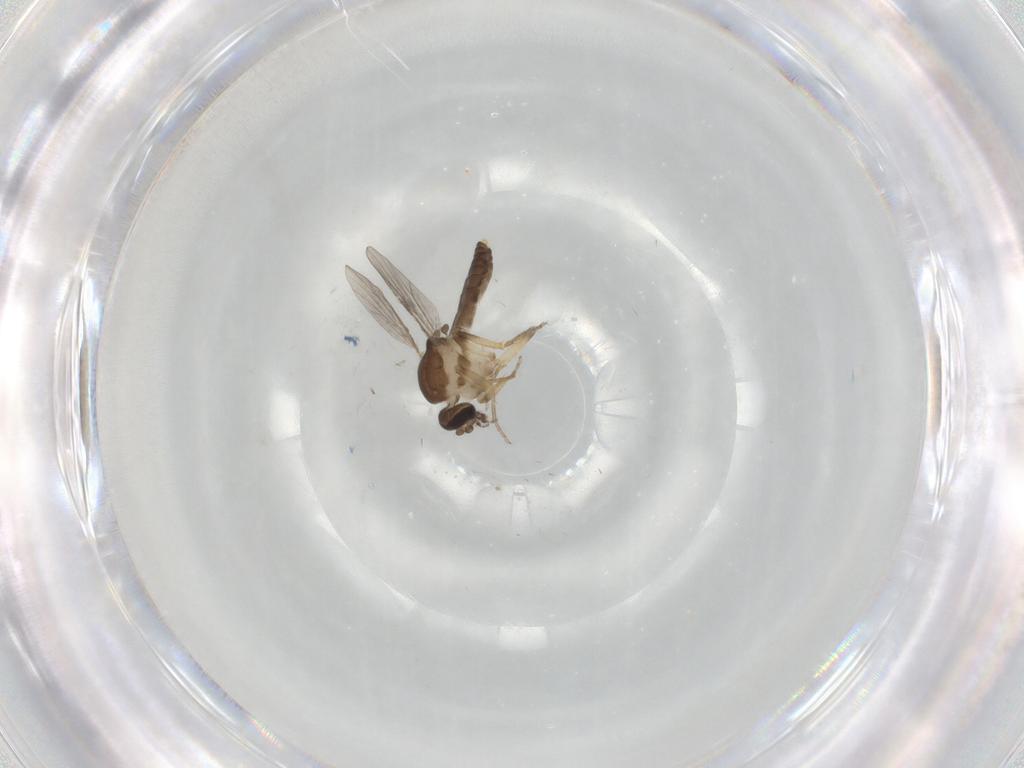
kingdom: Animalia
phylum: Arthropoda
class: Insecta
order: Diptera
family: Ceratopogonidae
